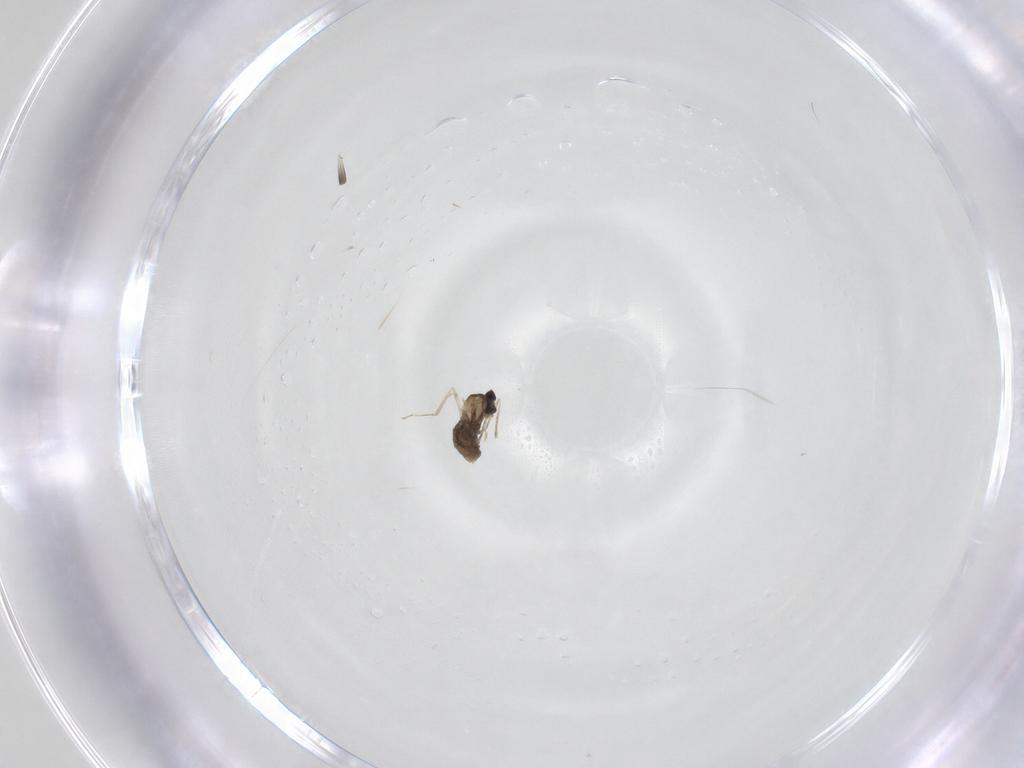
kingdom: Animalia
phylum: Arthropoda
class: Insecta
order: Diptera
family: Cecidomyiidae
